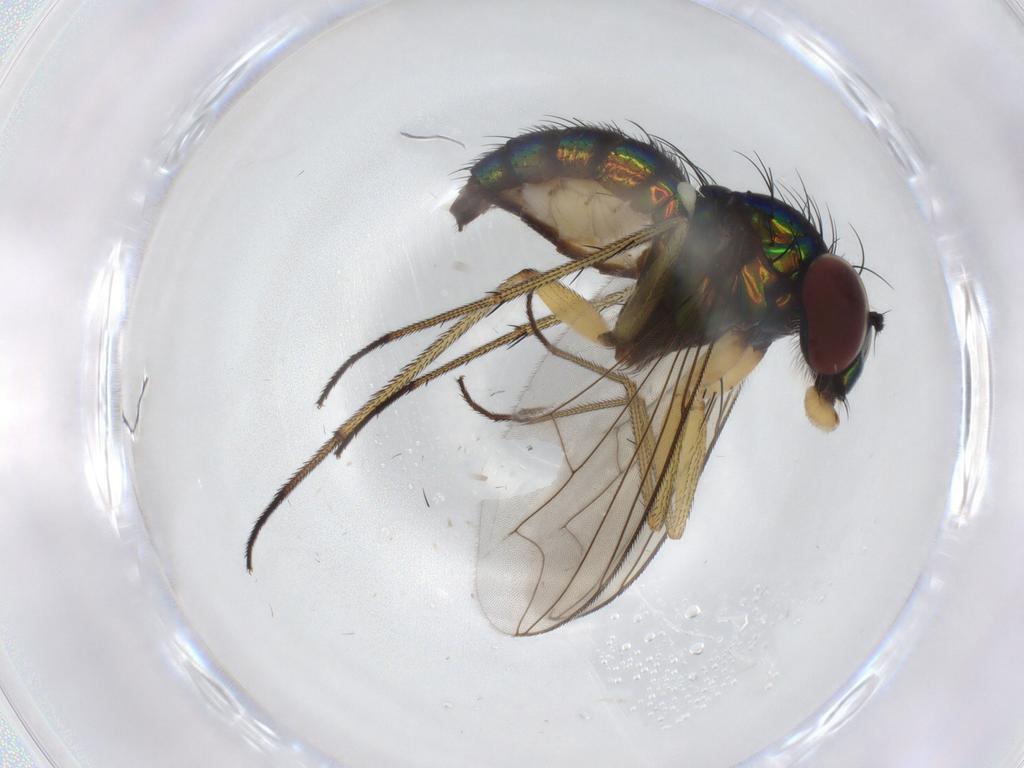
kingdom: Animalia
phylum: Arthropoda
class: Insecta
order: Diptera
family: Dolichopodidae
